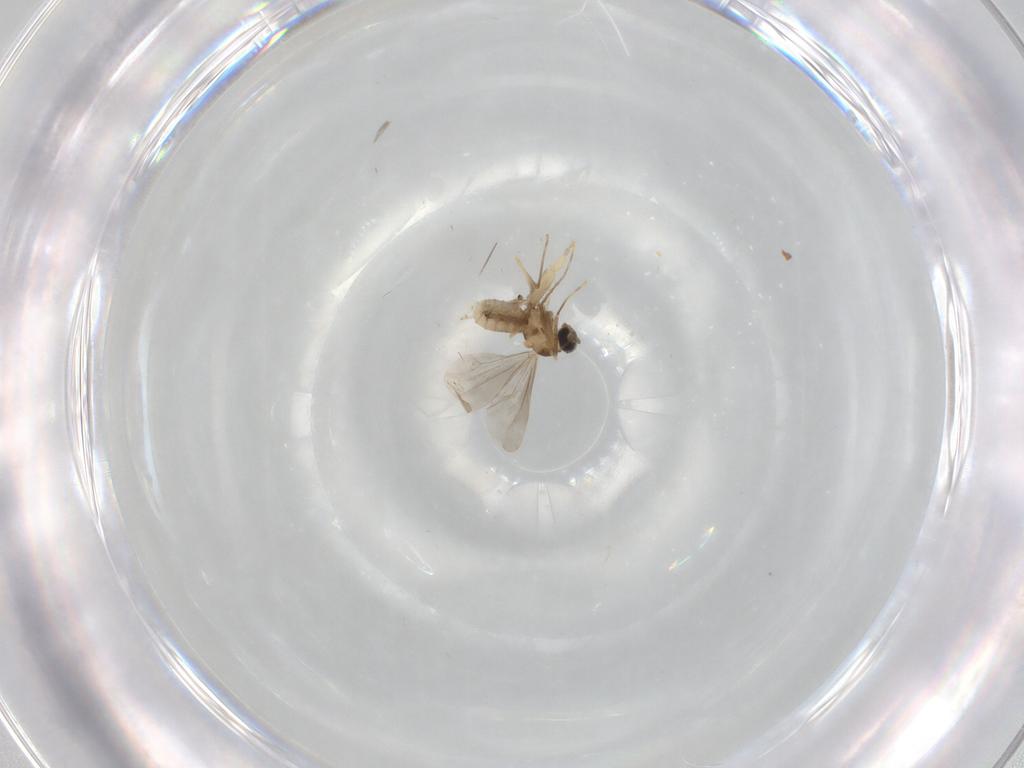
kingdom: Animalia
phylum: Arthropoda
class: Insecta
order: Diptera
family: Cecidomyiidae
